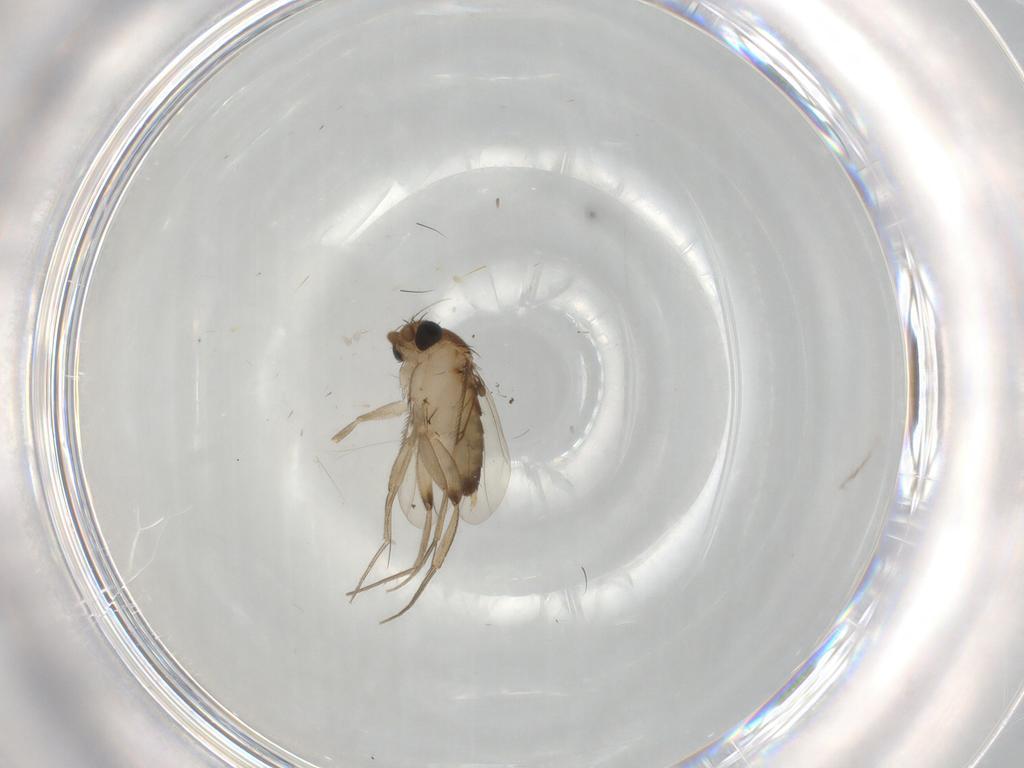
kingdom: Animalia
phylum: Arthropoda
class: Insecta
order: Diptera
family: Phoridae
